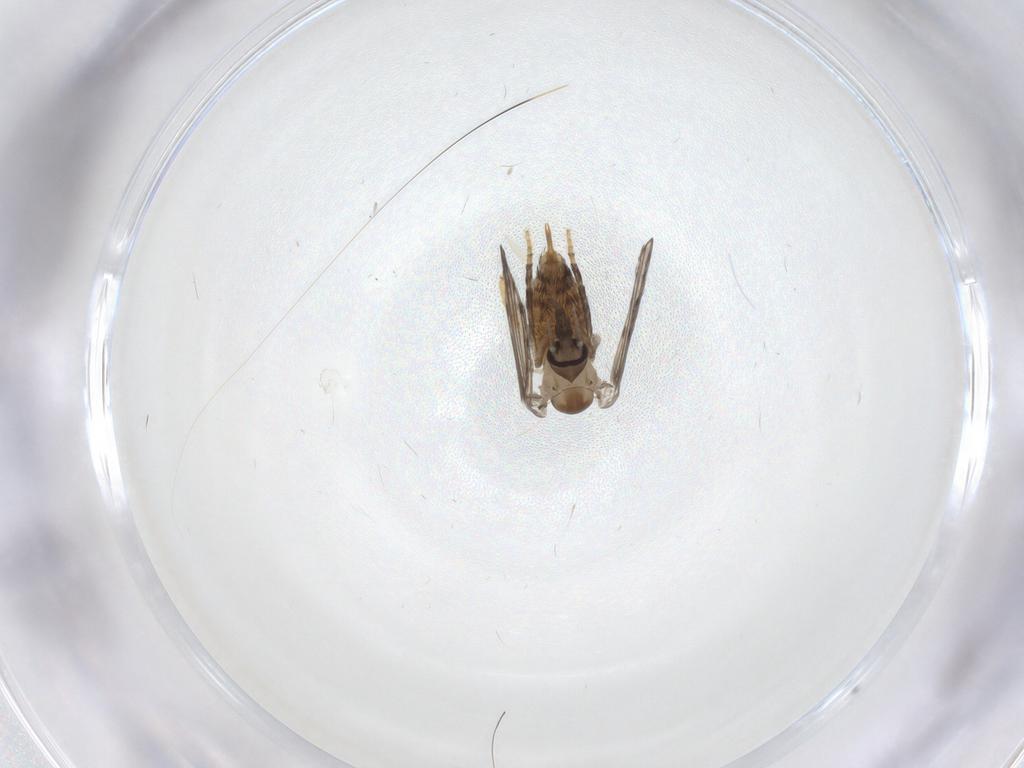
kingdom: Animalia
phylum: Arthropoda
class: Insecta
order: Diptera
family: Psychodidae
